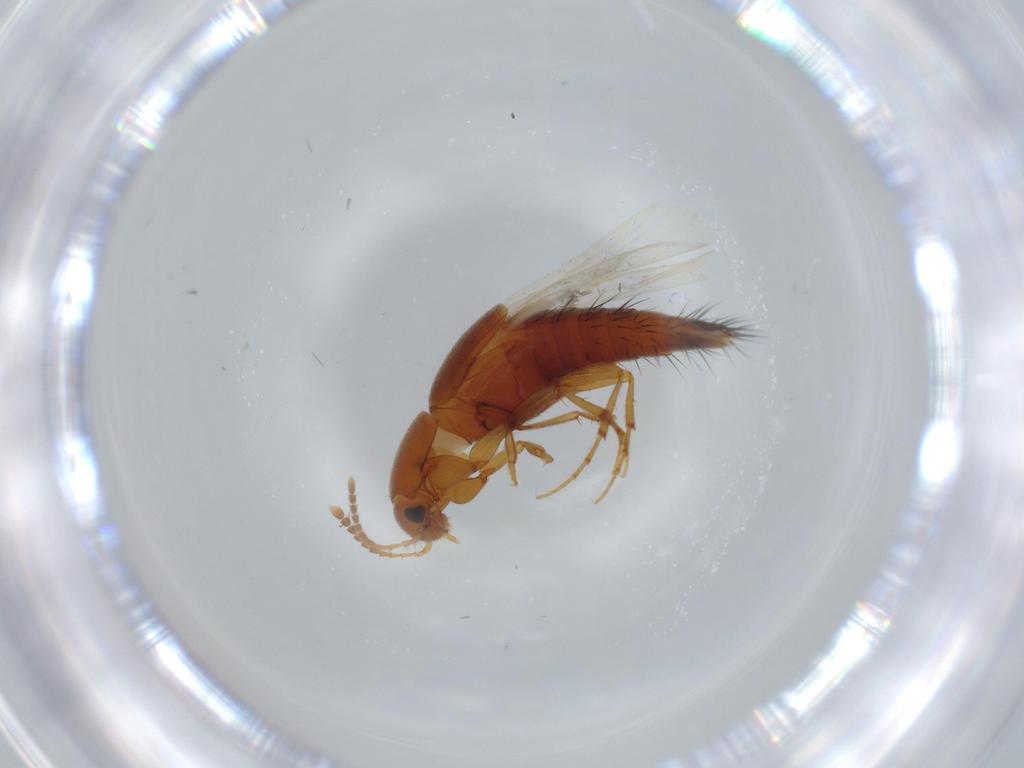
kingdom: Animalia
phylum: Arthropoda
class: Insecta
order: Coleoptera
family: Staphylinidae
